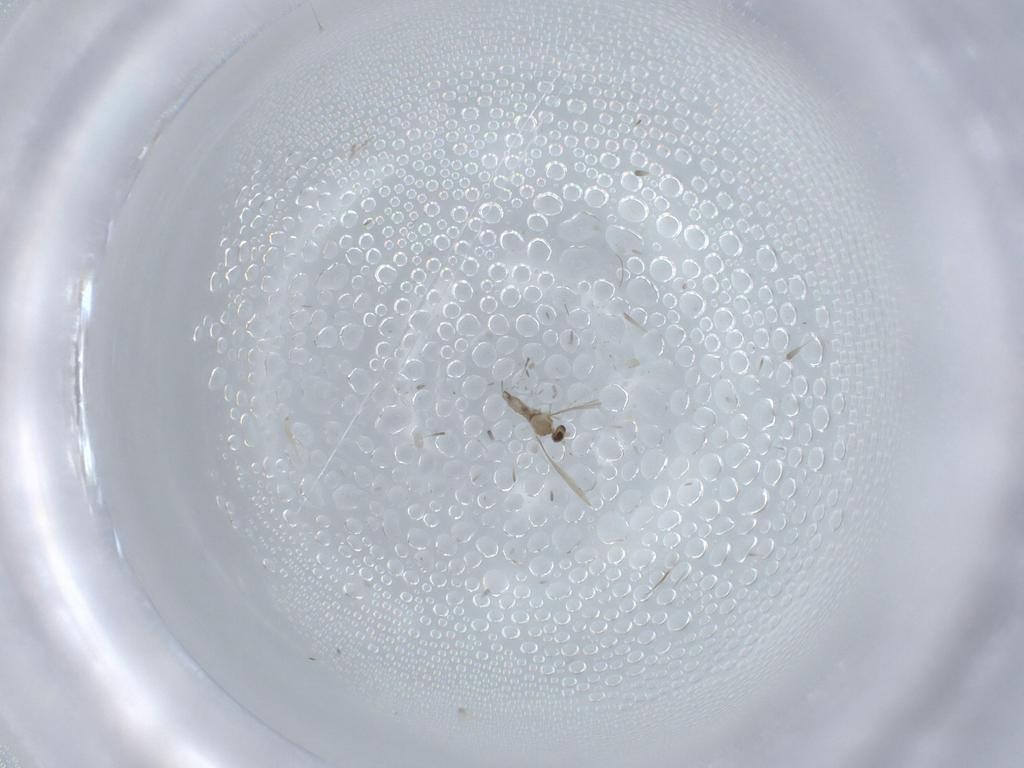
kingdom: Animalia
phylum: Arthropoda
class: Insecta
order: Diptera
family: Cecidomyiidae
